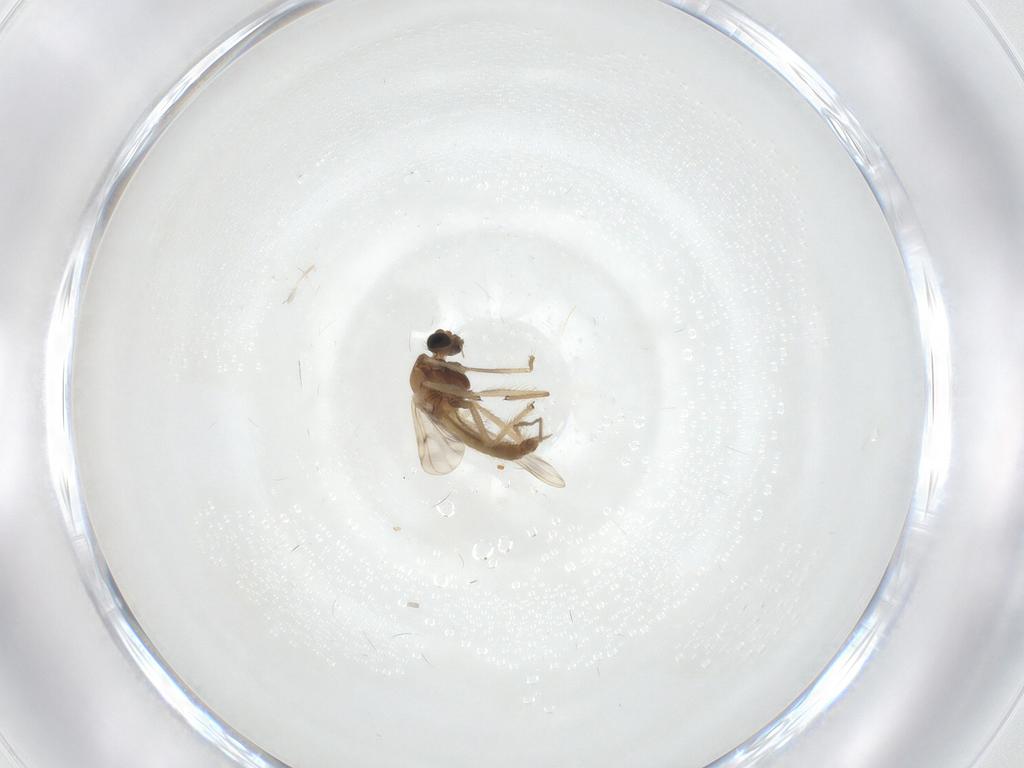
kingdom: Animalia
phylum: Arthropoda
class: Insecta
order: Diptera
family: Chironomidae
